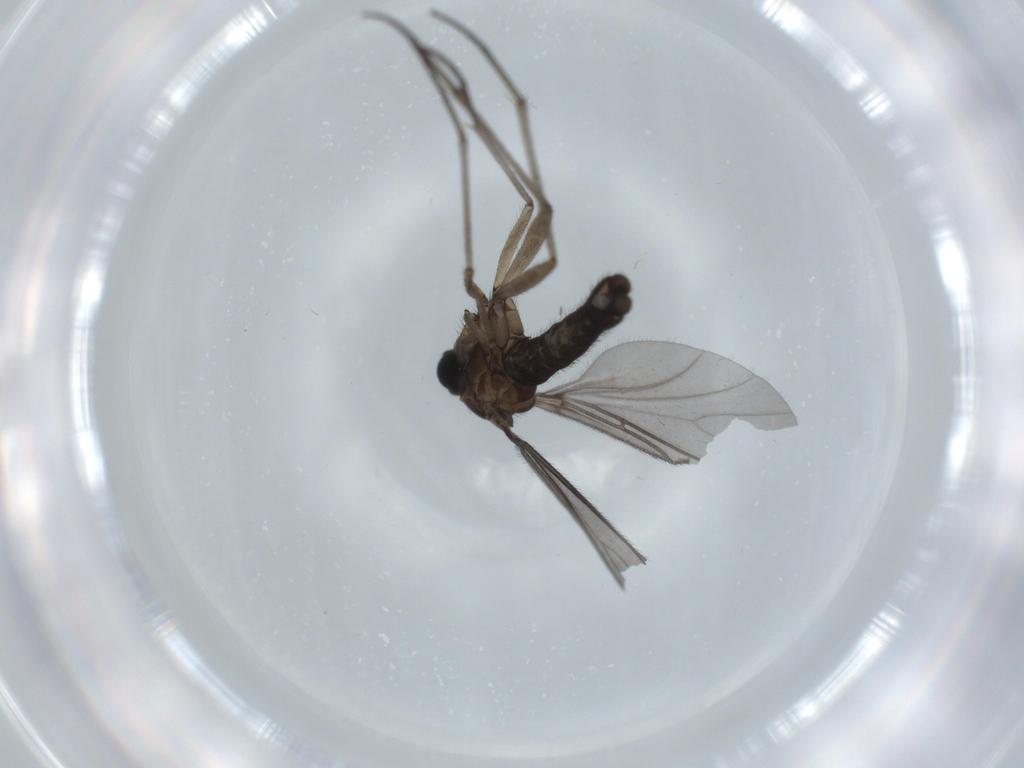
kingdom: Animalia
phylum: Arthropoda
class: Insecta
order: Diptera
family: Sciaridae
